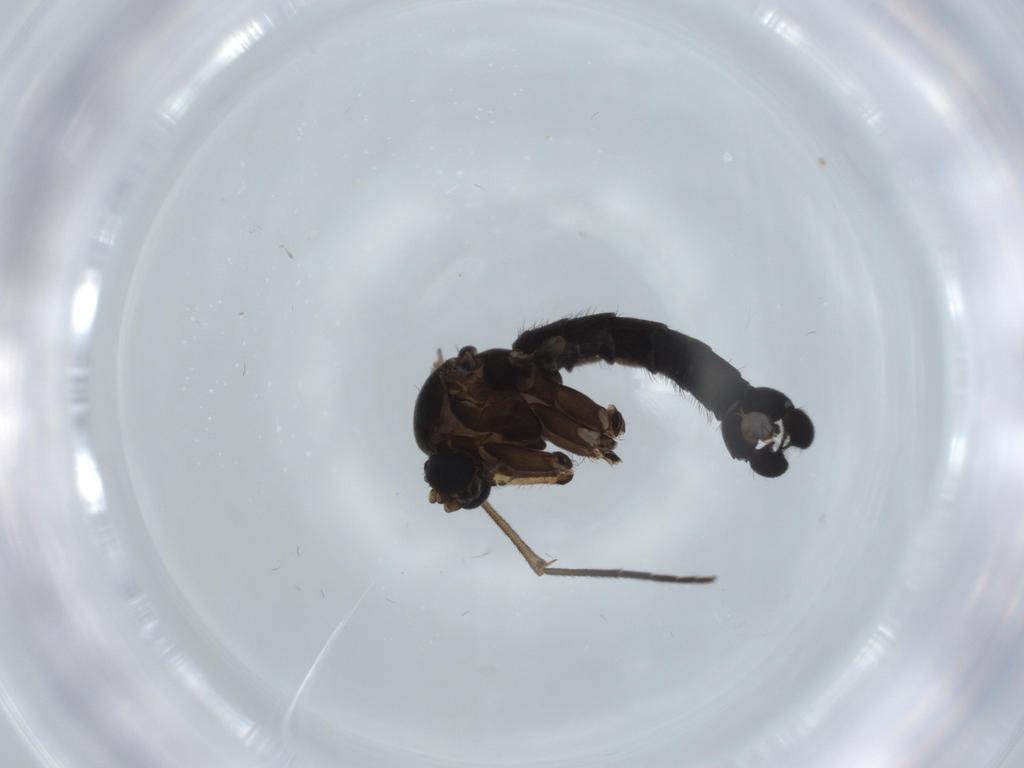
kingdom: Animalia
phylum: Arthropoda
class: Insecta
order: Diptera
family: Sciaridae
